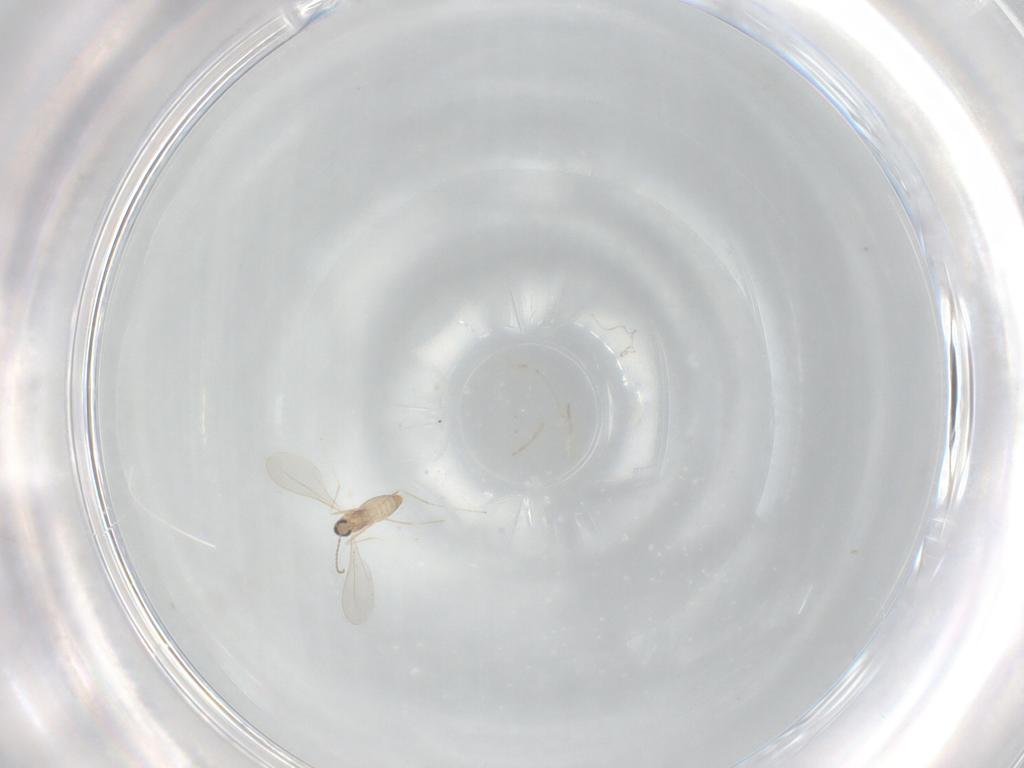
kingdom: Animalia
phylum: Arthropoda
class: Insecta
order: Diptera
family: Cecidomyiidae
